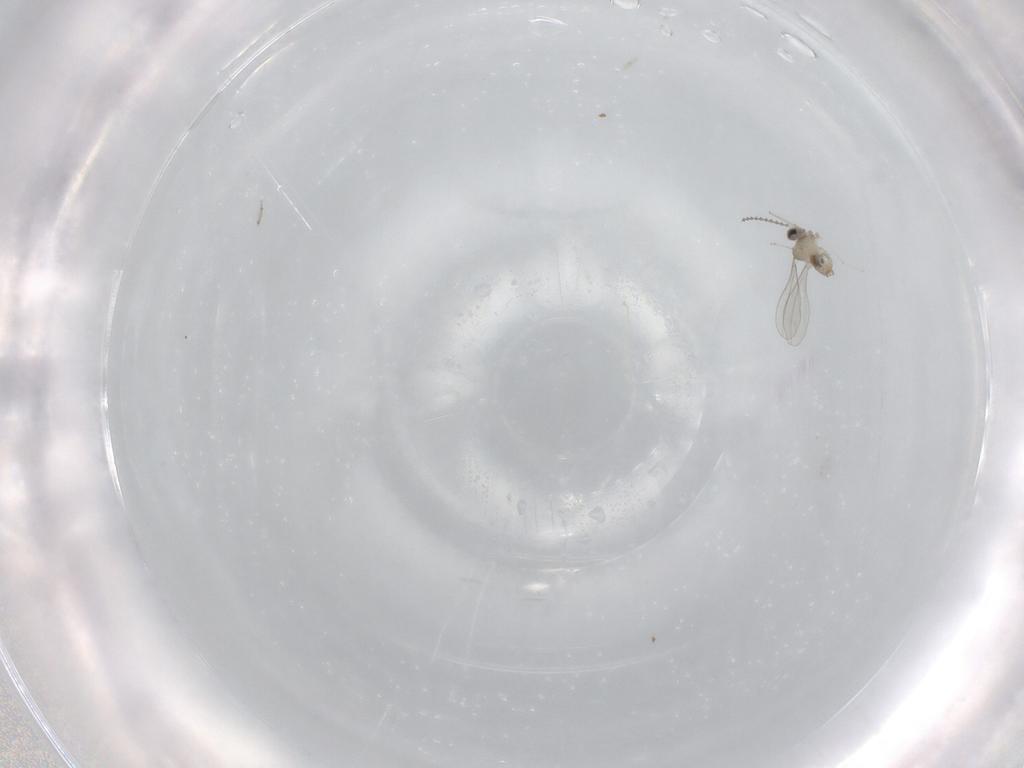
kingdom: Animalia
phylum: Arthropoda
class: Insecta
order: Diptera
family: Cecidomyiidae
